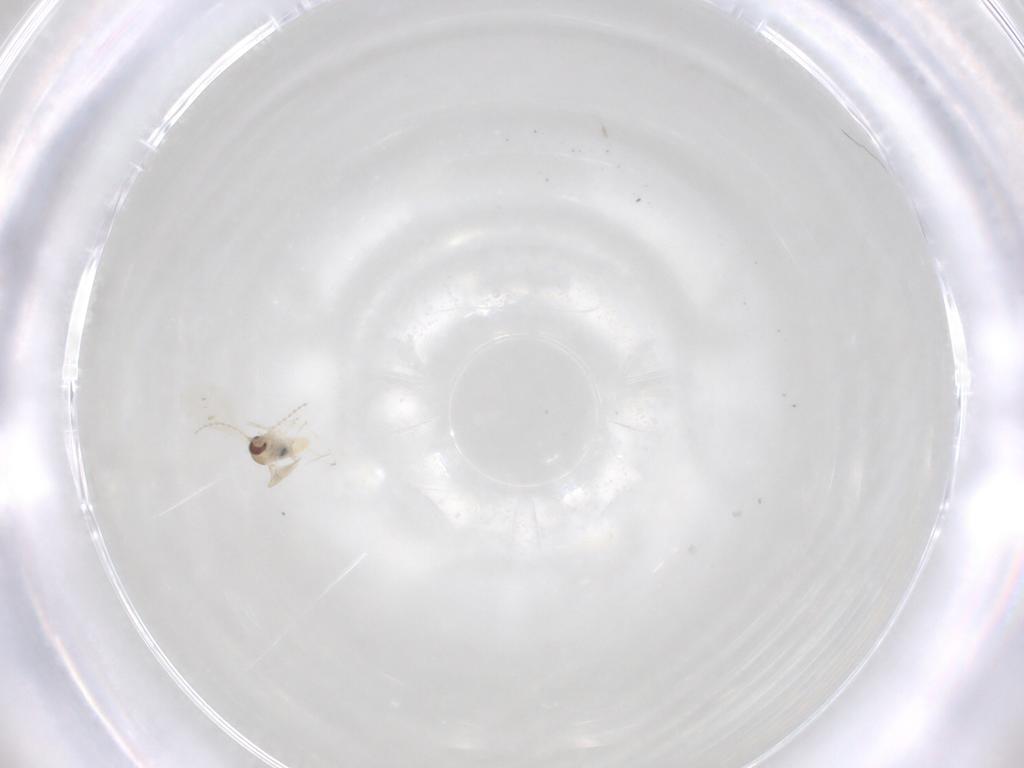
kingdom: Animalia
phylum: Arthropoda
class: Insecta
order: Diptera
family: Cecidomyiidae
